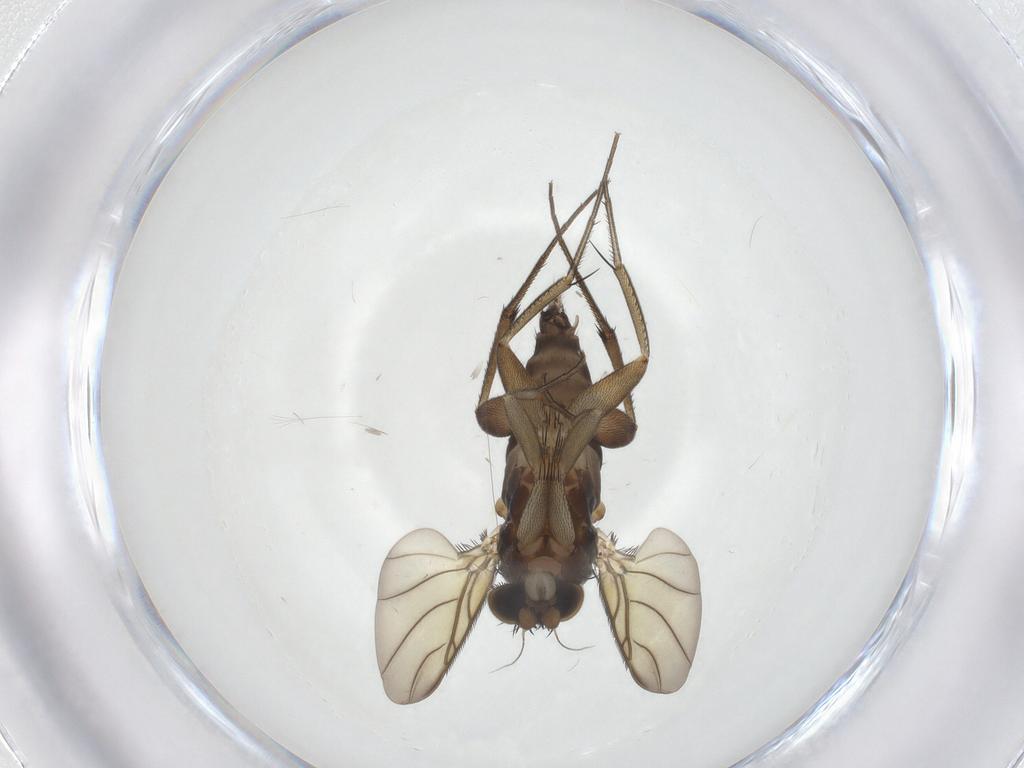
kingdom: Animalia
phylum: Arthropoda
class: Insecta
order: Diptera
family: Phoridae
